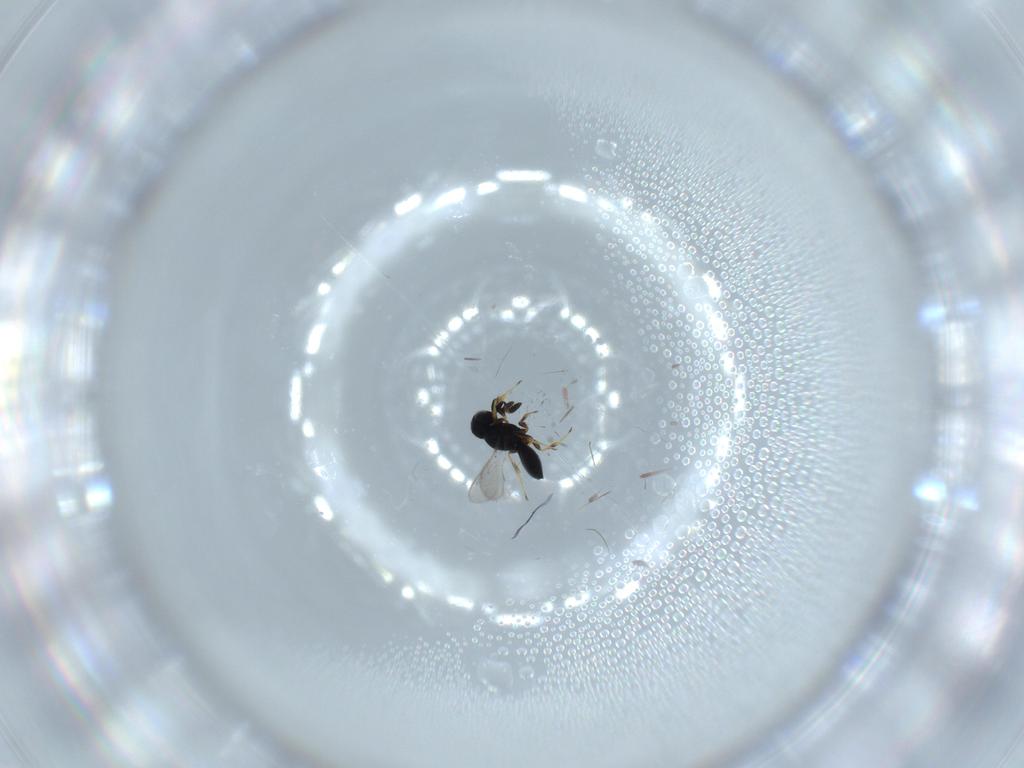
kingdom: Animalia
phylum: Arthropoda
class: Insecta
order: Hymenoptera
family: Scelionidae
